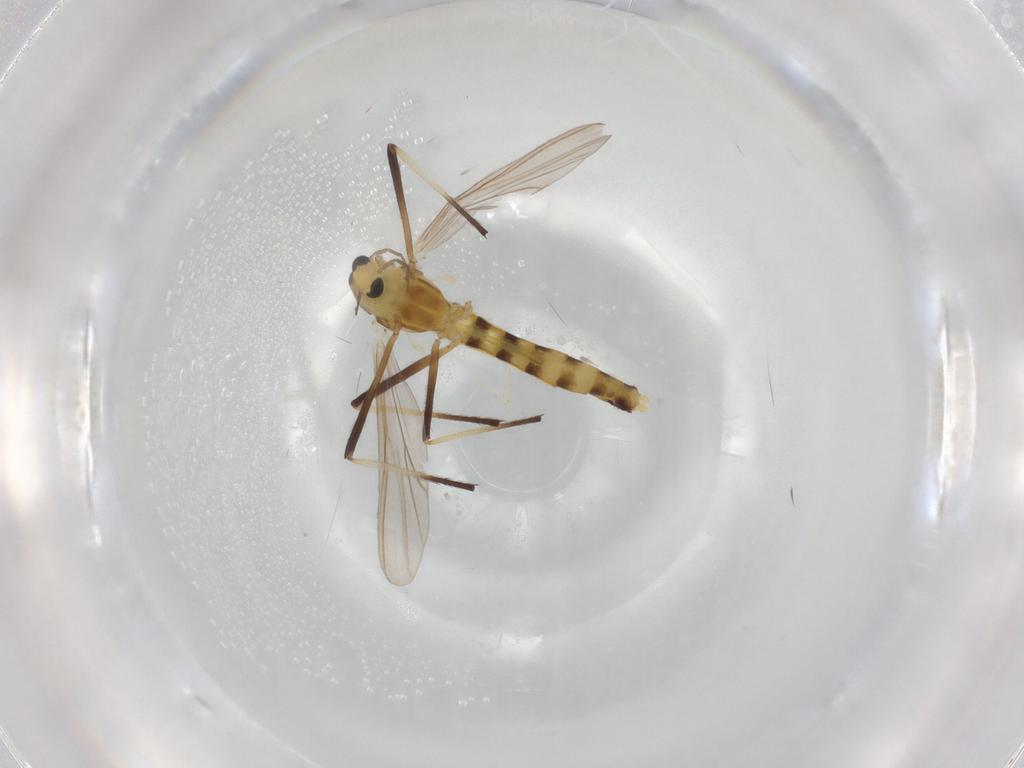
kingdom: Animalia
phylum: Arthropoda
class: Insecta
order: Diptera
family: Chironomidae
